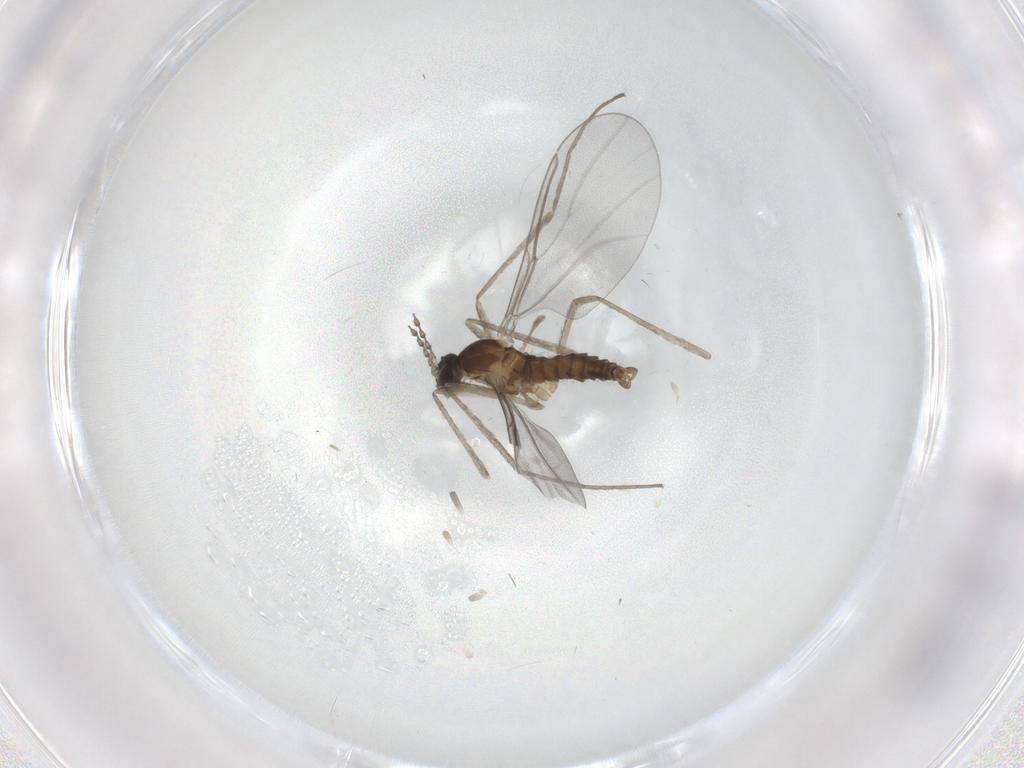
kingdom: Animalia
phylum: Arthropoda
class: Insecta
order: Diptera
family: Cecidomyiidae
